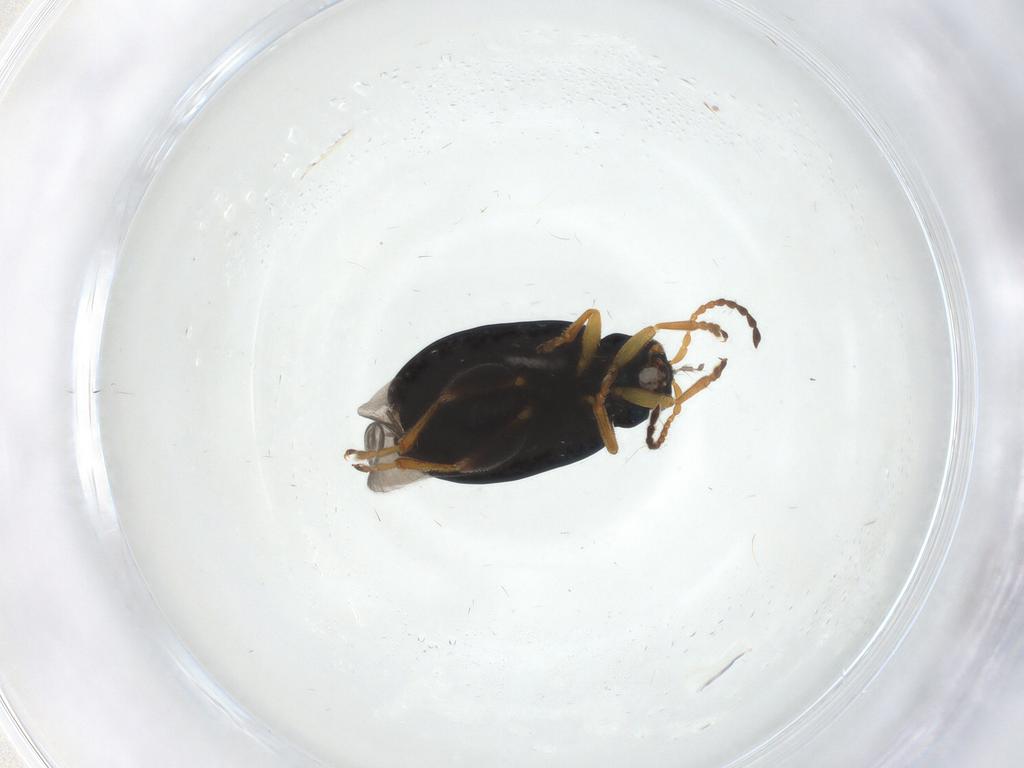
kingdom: Animalia
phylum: Arthropoda
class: Insecta
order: Coleoptera
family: Chrysomelidae
